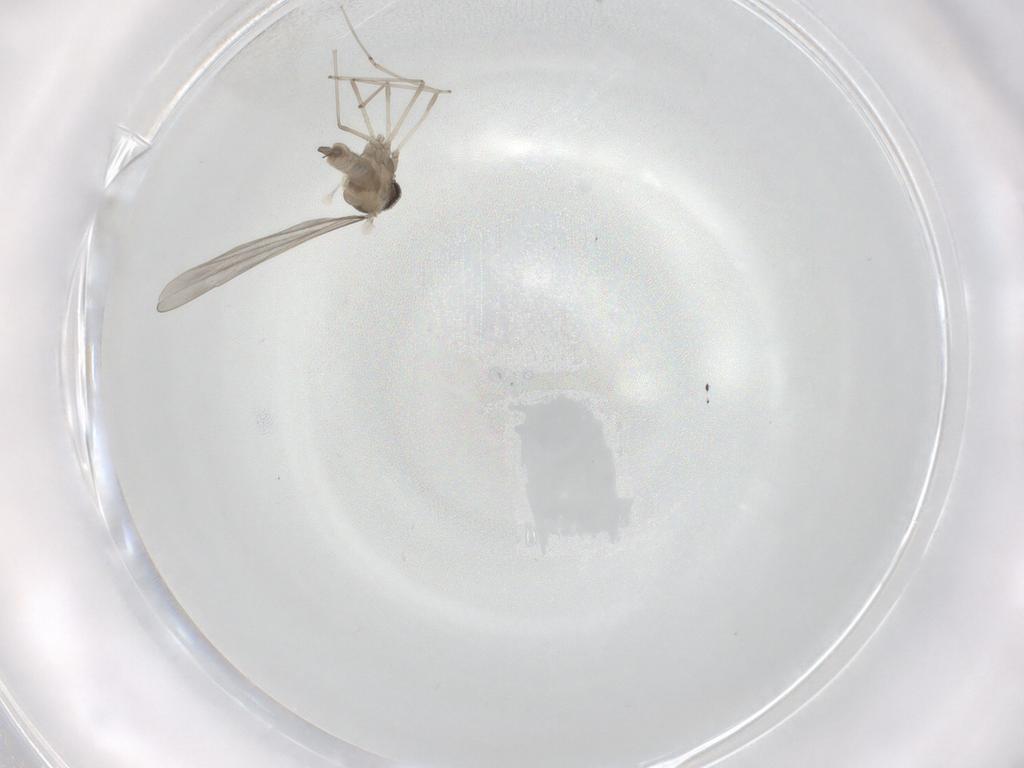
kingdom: Animalia
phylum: Arthropoda
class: Insecta
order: Diptera
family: Cecidomyiidae
